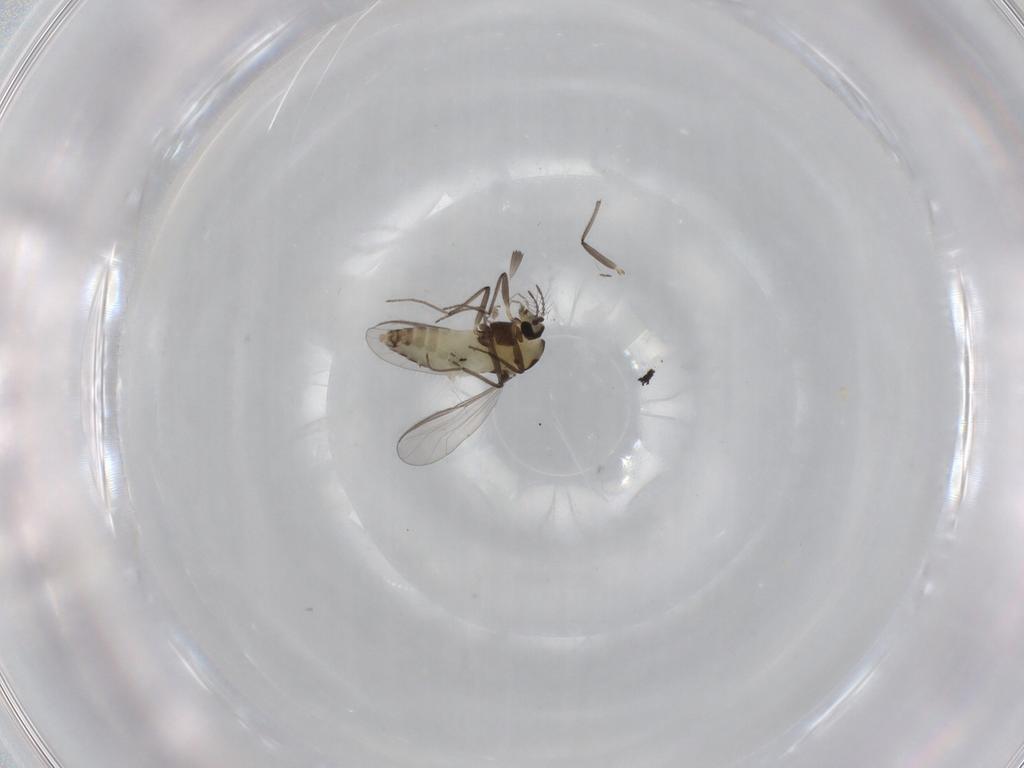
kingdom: Animalia
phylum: Arthropoda
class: Insecta
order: Diptera
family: Chironomidae
